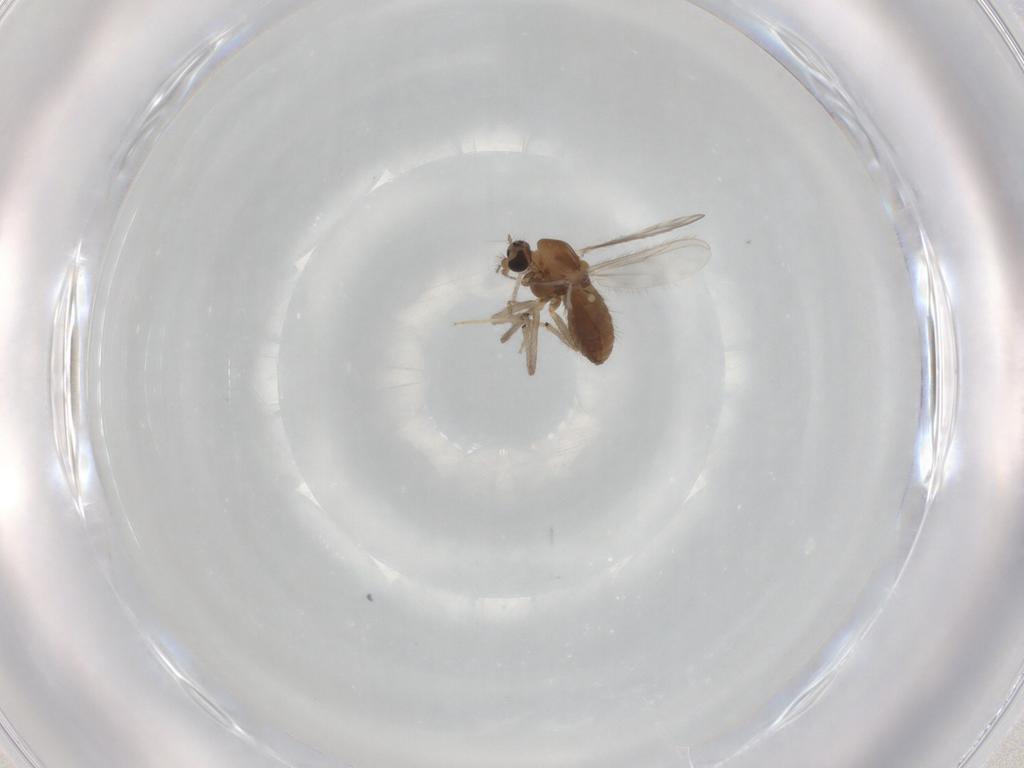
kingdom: Animalia
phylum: Arthropoda
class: Insecta
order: Diptera
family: Chironomidae
